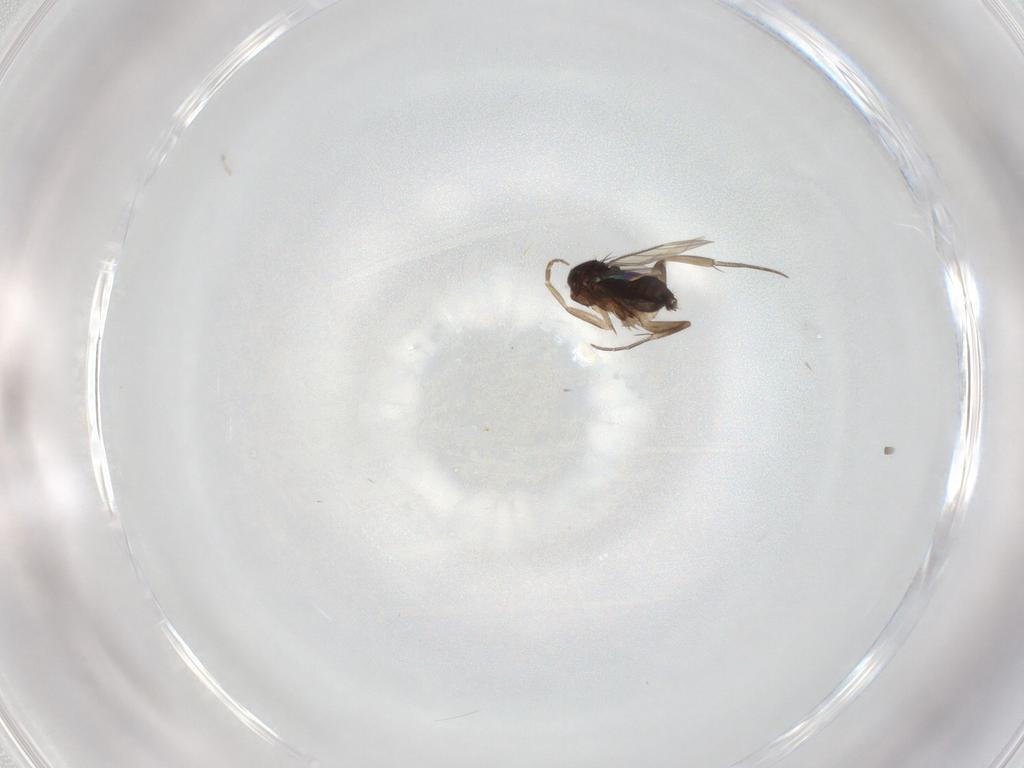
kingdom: Animalia
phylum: Arthropoda
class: Insecta
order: Diptera
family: Phoridae
